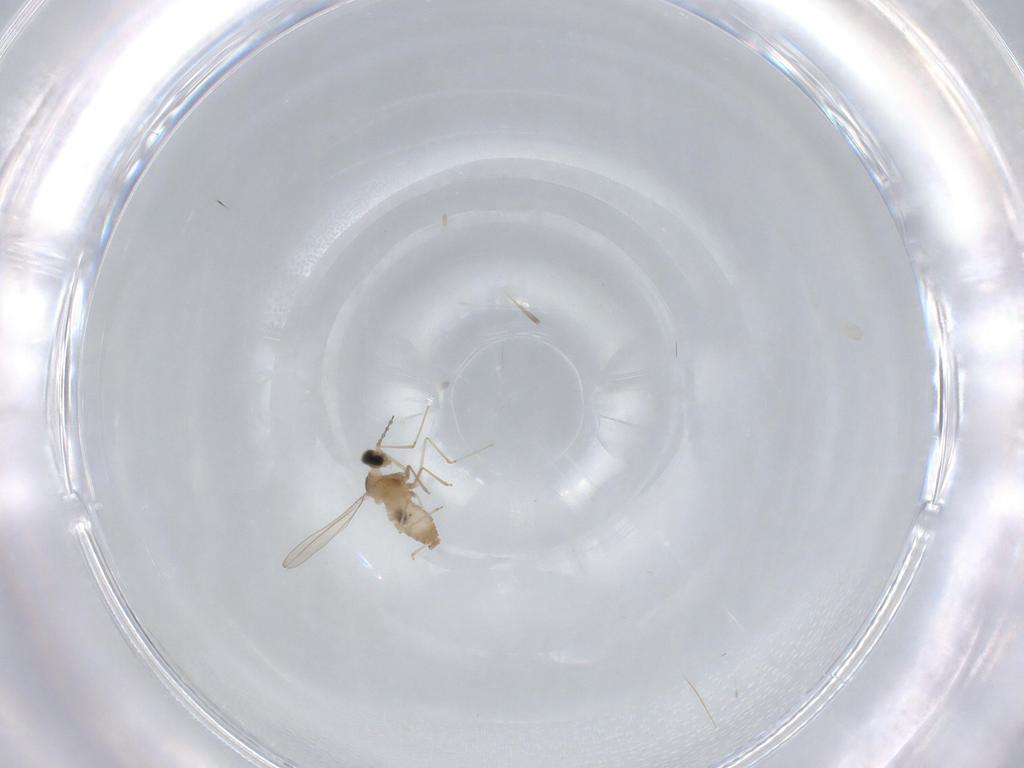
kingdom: Animalia
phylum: Arthropoda
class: Insecta
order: Diptera
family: Cecidomyiidae
